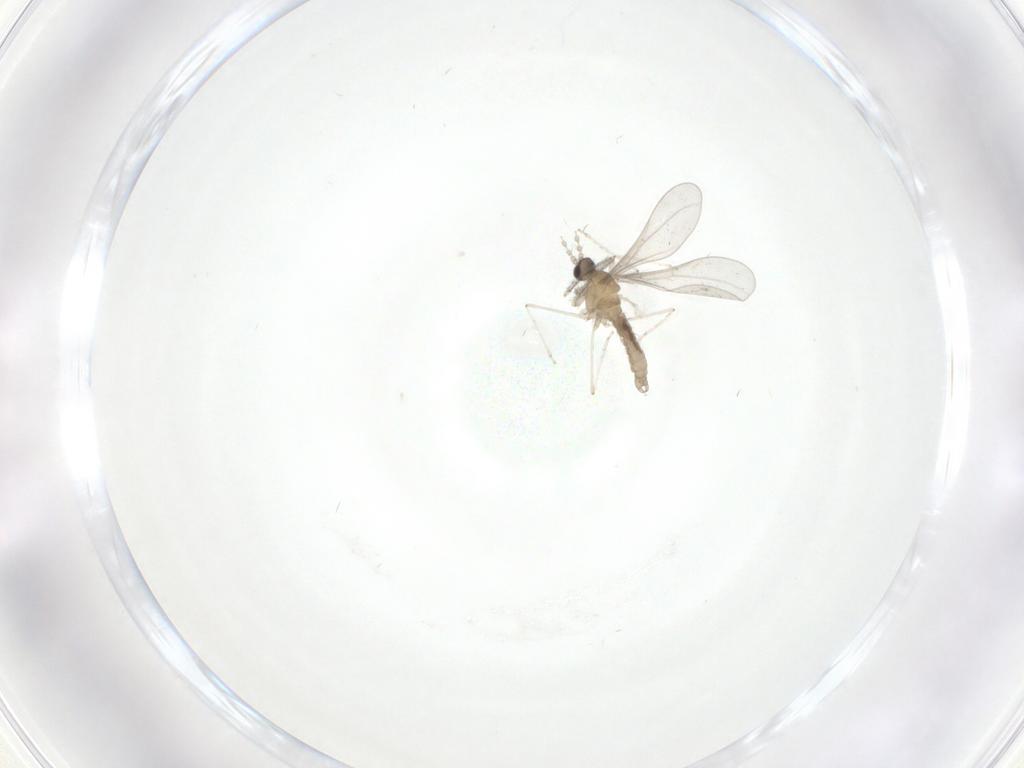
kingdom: Animalia
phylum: Arthropoda
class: Insecta
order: Diptera
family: Cecidomyiidae
